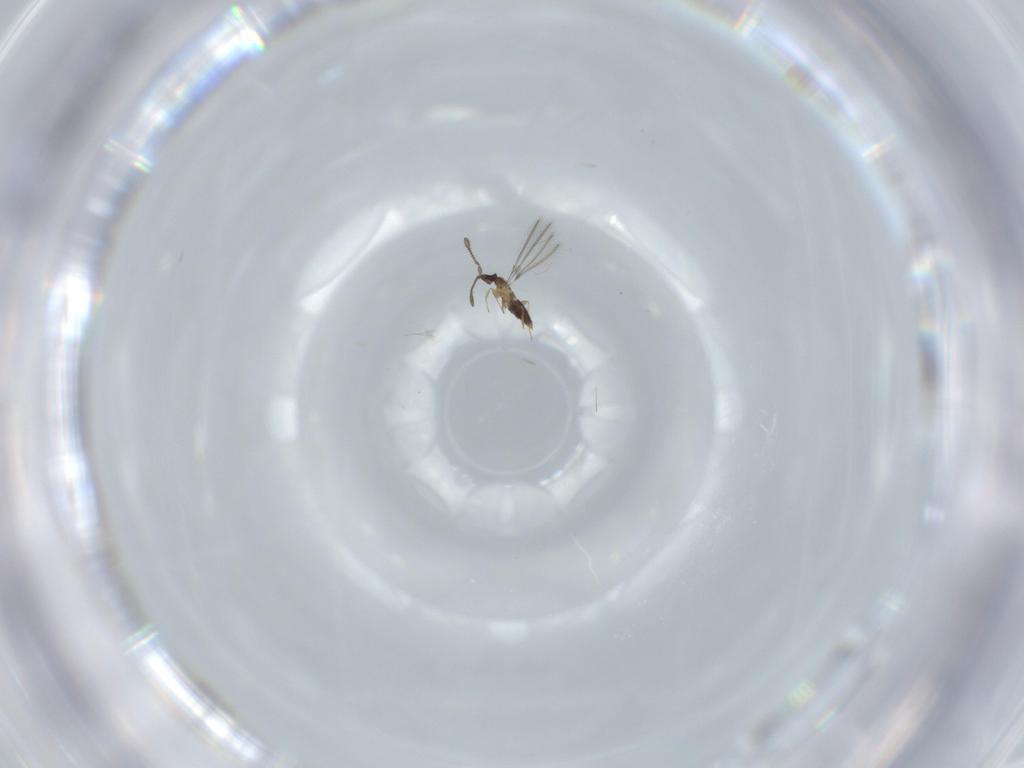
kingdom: Animalia
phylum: Arthropoda
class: Insecta
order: Hymenoptera
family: Mymaridae
